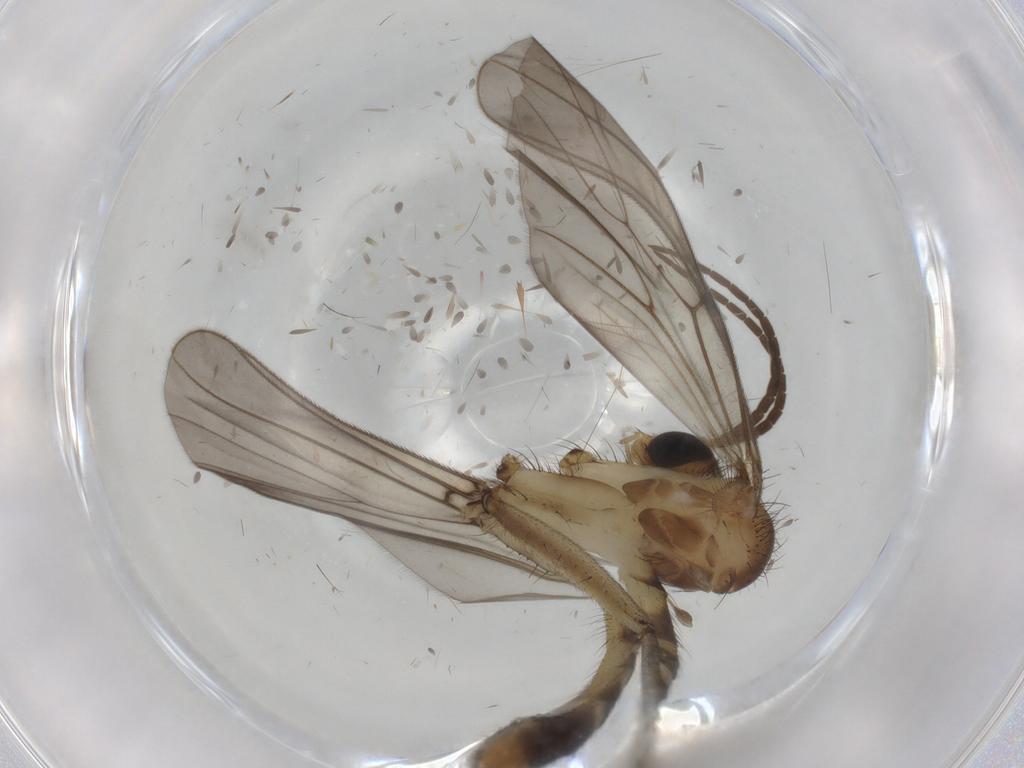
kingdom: Animalia
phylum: Arthropoda
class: Insecta
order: Diptera
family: Mycetophilidae
